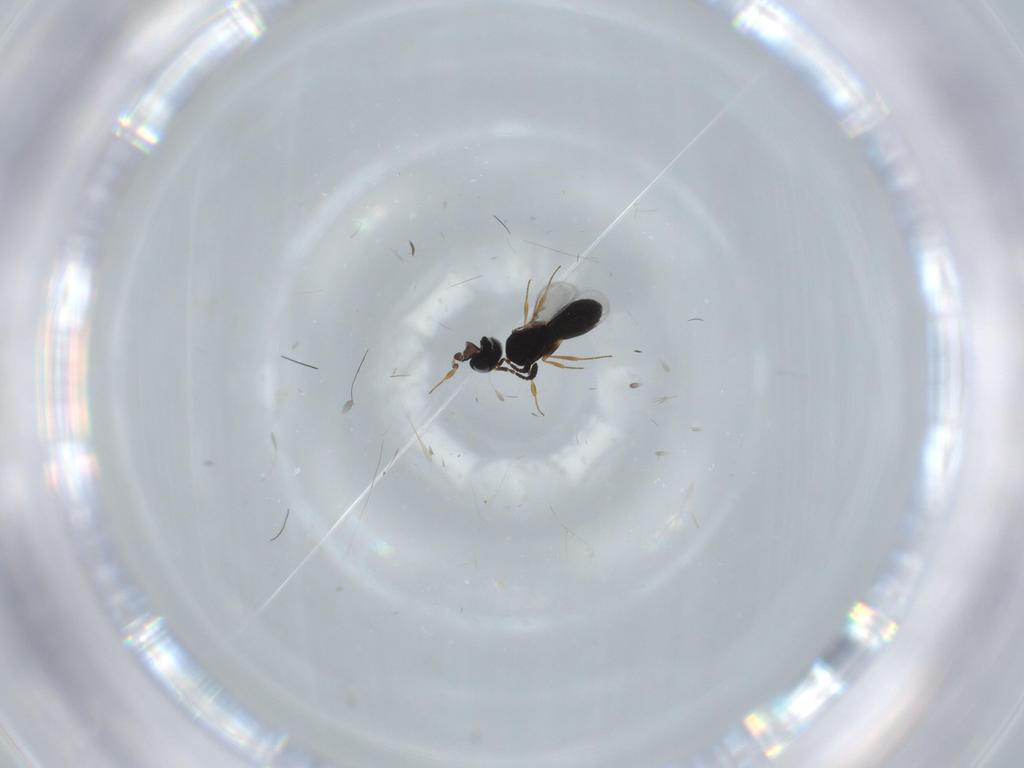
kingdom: Animalia
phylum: Arthropoda
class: Insecta
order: Hymenoptera
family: Scelionidae
